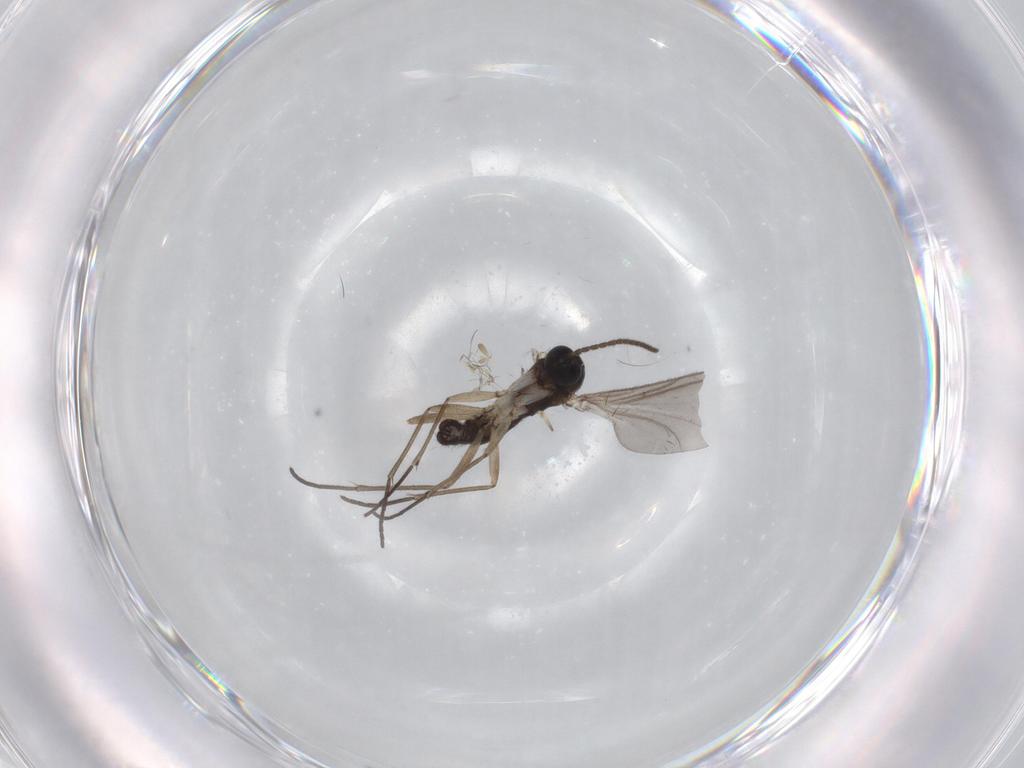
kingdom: Animalia
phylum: Arthropoda
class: Insecta
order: Diptera
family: Sciaridae
